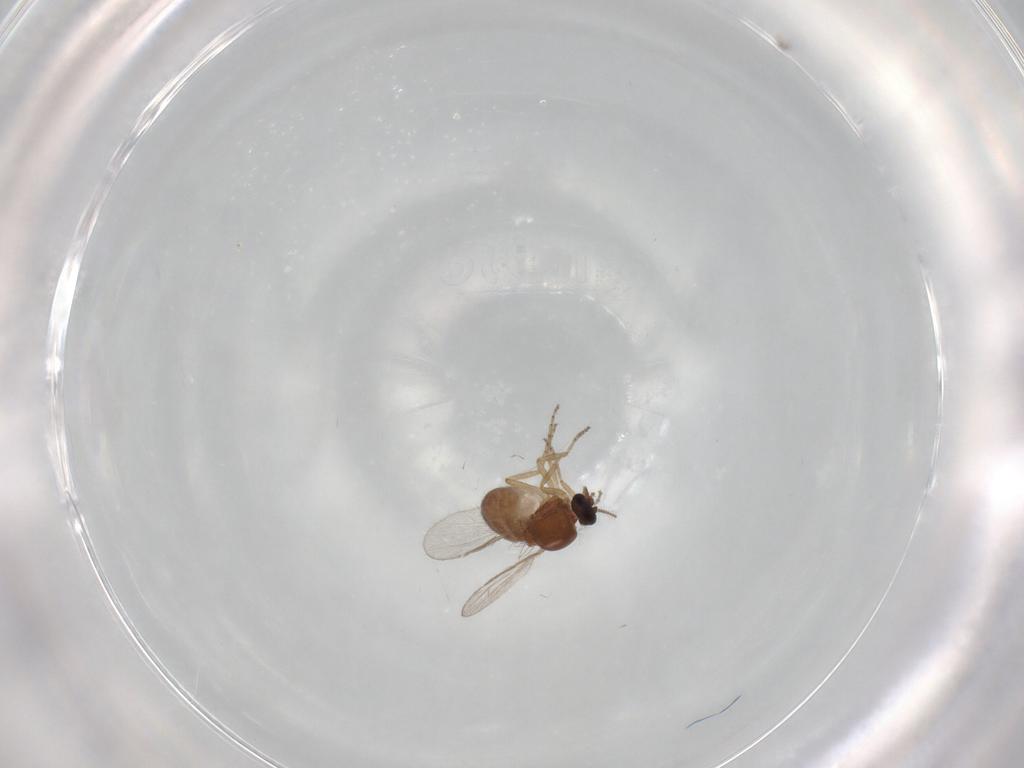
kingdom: Animalia
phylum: Arthropoda
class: Insecta
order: Diptera
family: Ceratopogonidae
